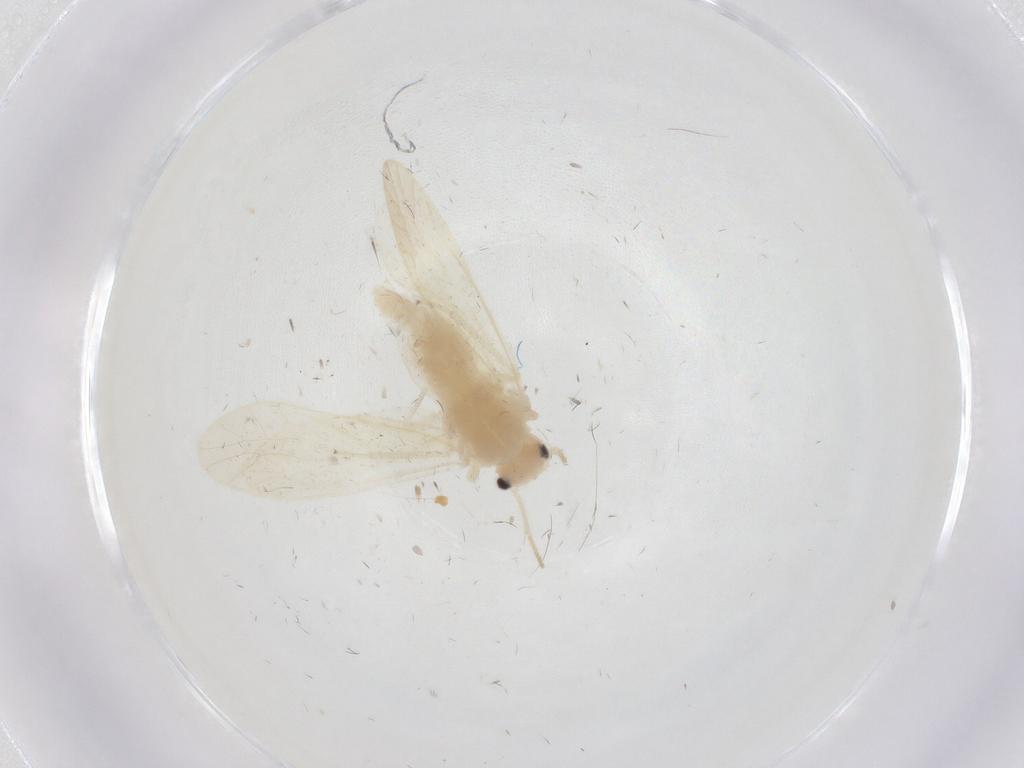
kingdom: Animalia
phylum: Arthropoda
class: Insecta
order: Psocodea
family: Caeciliusidae
